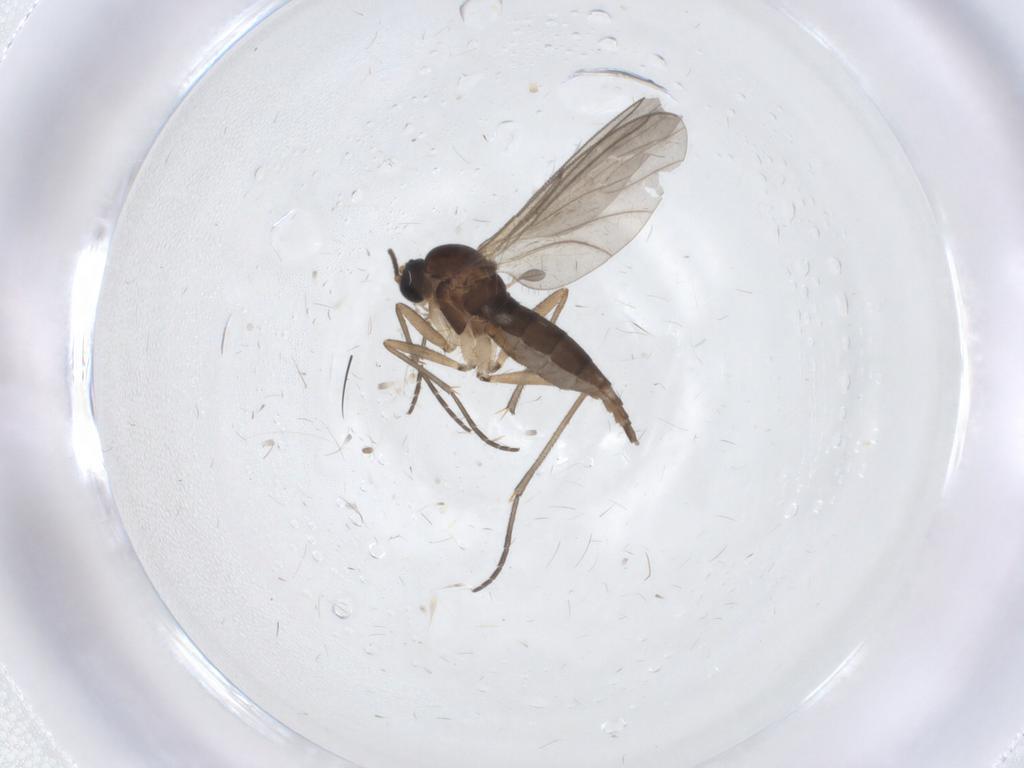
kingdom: Animalia
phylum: Arthropoda
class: Insecta
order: Diptera
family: Sciaridae
